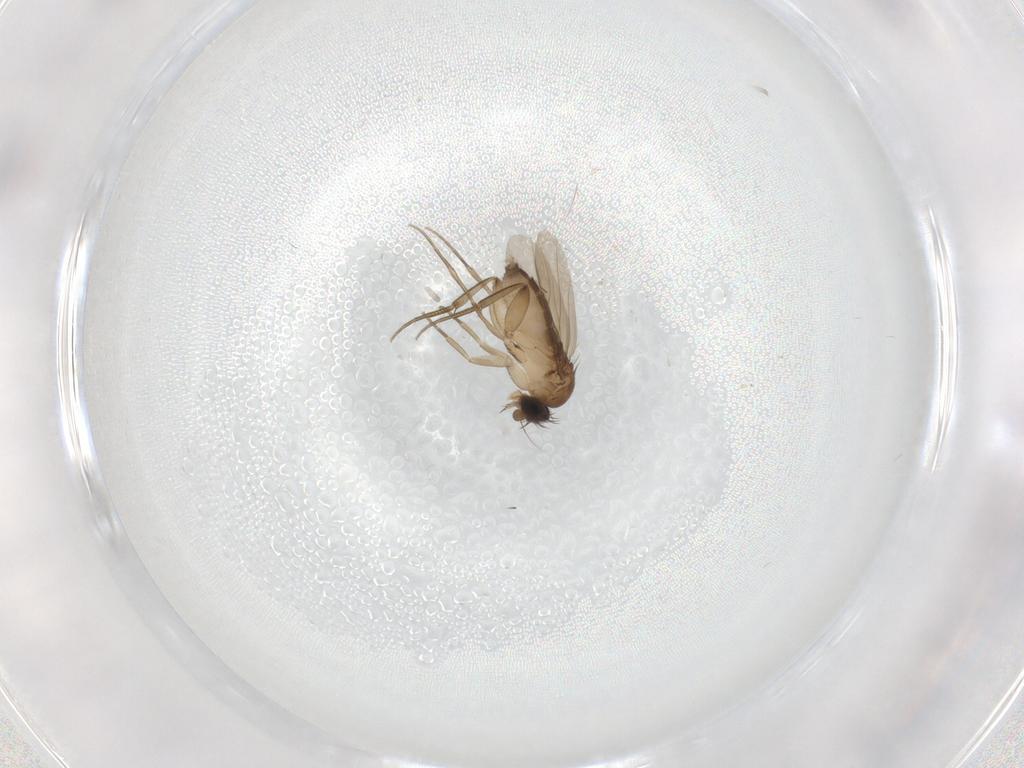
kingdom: Animalia
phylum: Arthropoda
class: Insecta
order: Diptera
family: Phoridae
